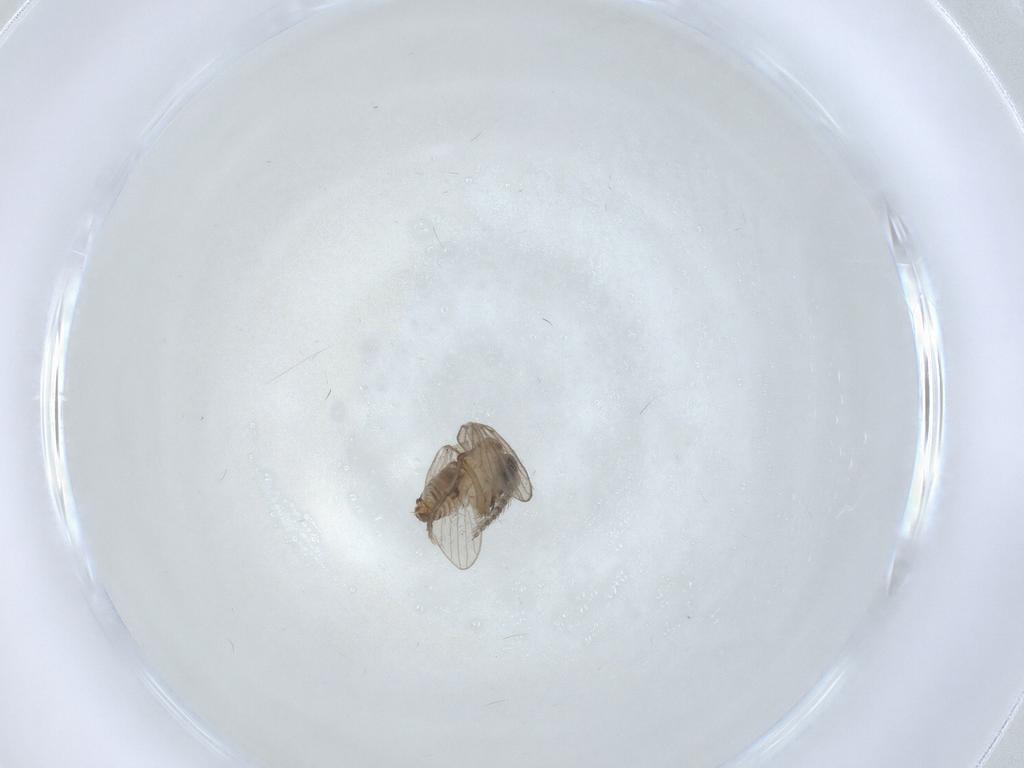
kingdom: Animalia
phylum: Arthropoda
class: Insecta
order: Diptera
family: Psychodidae
